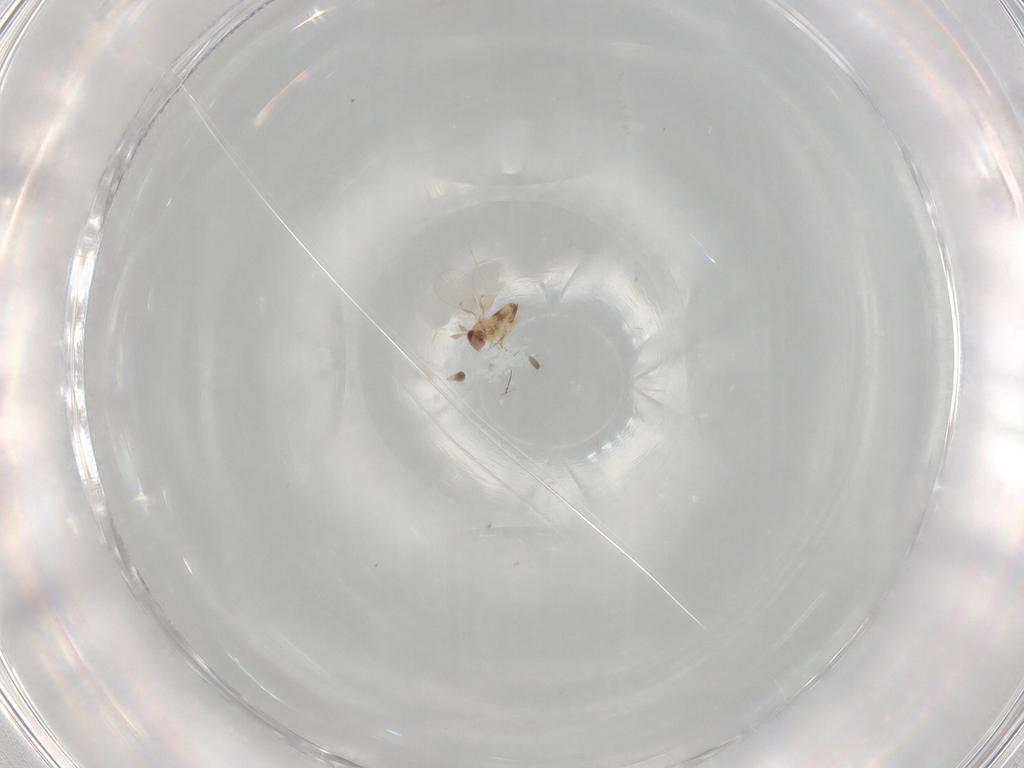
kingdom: Animalia
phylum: Arthropoda
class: Insecta
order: Hymenoptera
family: Trichogrammatidae
